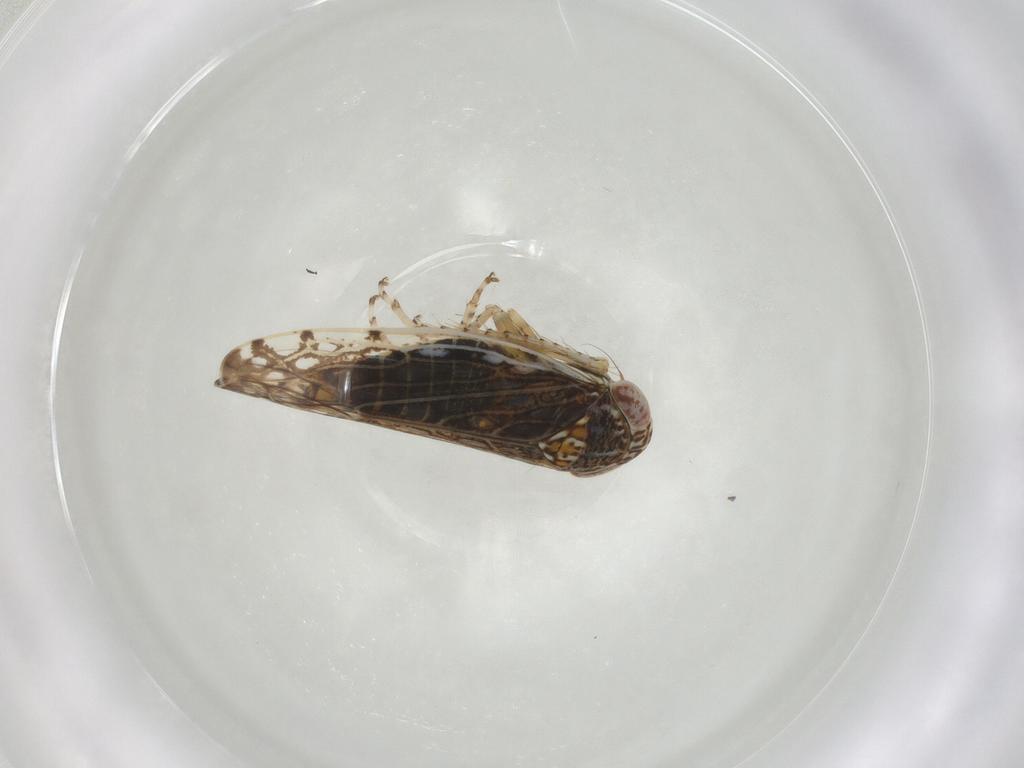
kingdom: Animalia
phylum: Arthropoda
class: Insecta
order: Hemiptera
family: Cicadellidae
